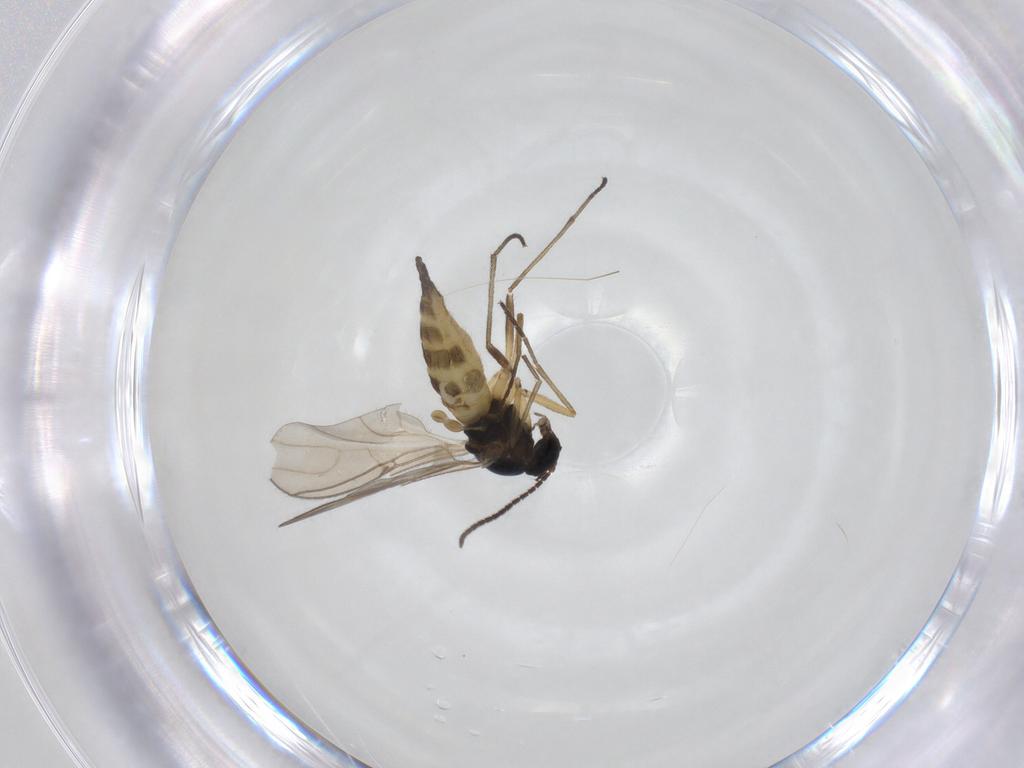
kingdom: Animalia
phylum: Arthropoda
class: Insecta
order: Diptera
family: Sciaridae
